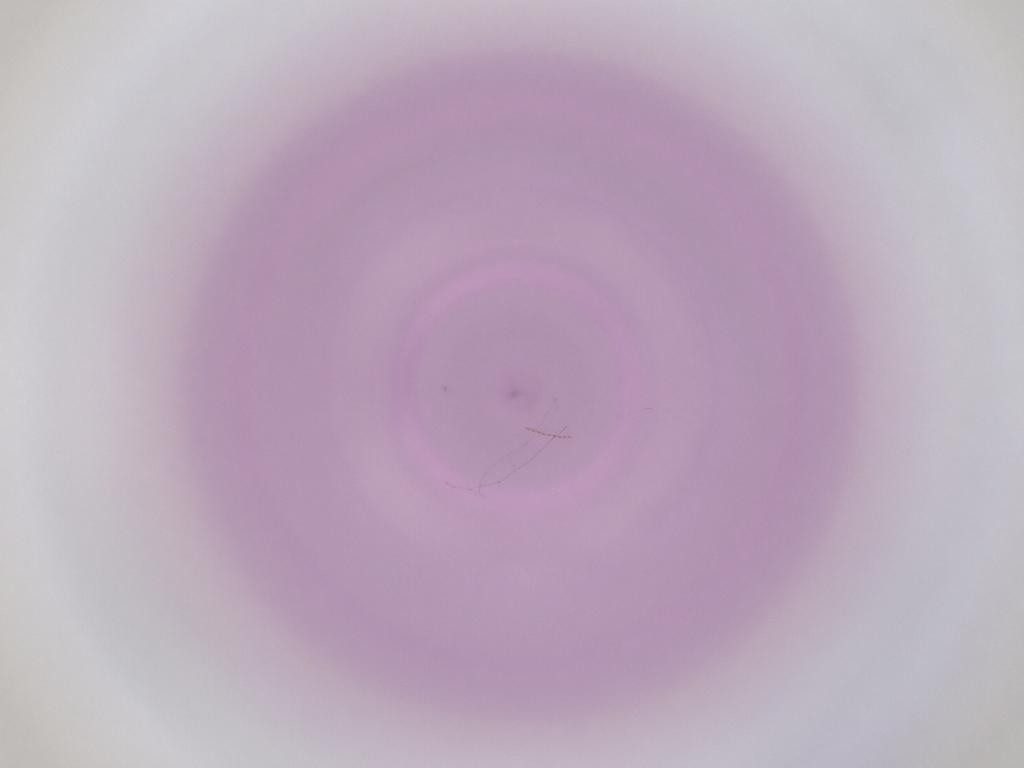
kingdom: Animalia
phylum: Arthropoda
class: Insecta
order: Diptera
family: Cecidomyiidae
